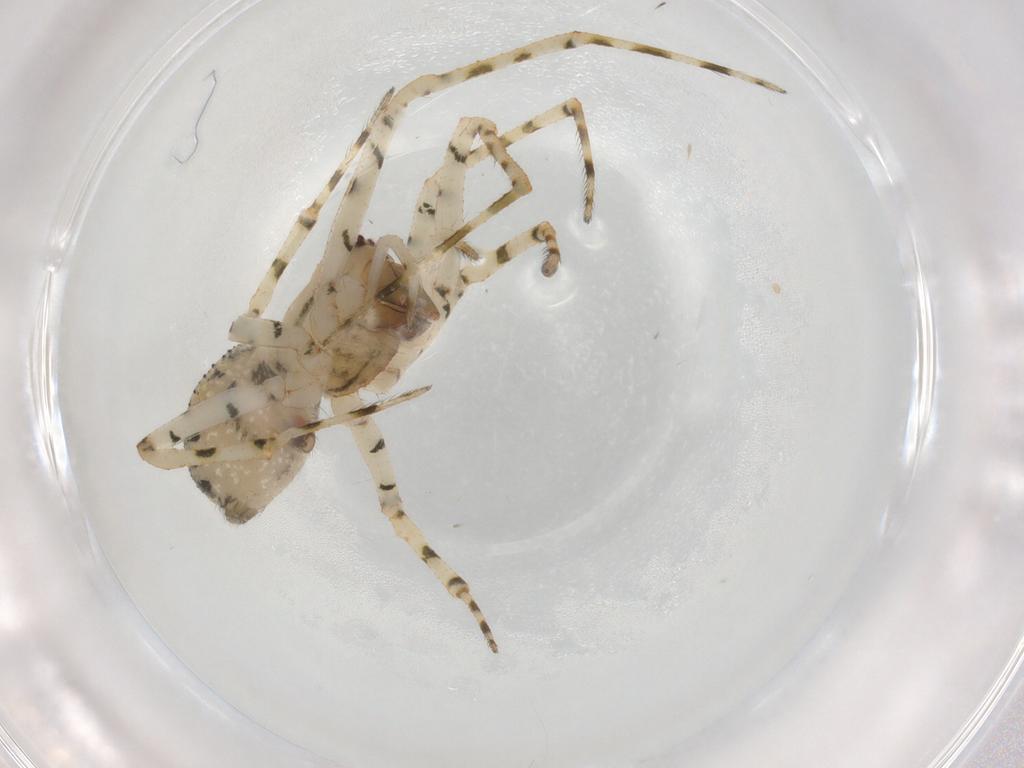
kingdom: Animalia
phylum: Arthropoda
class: Arachnida
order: Araneae
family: Theridiidae
